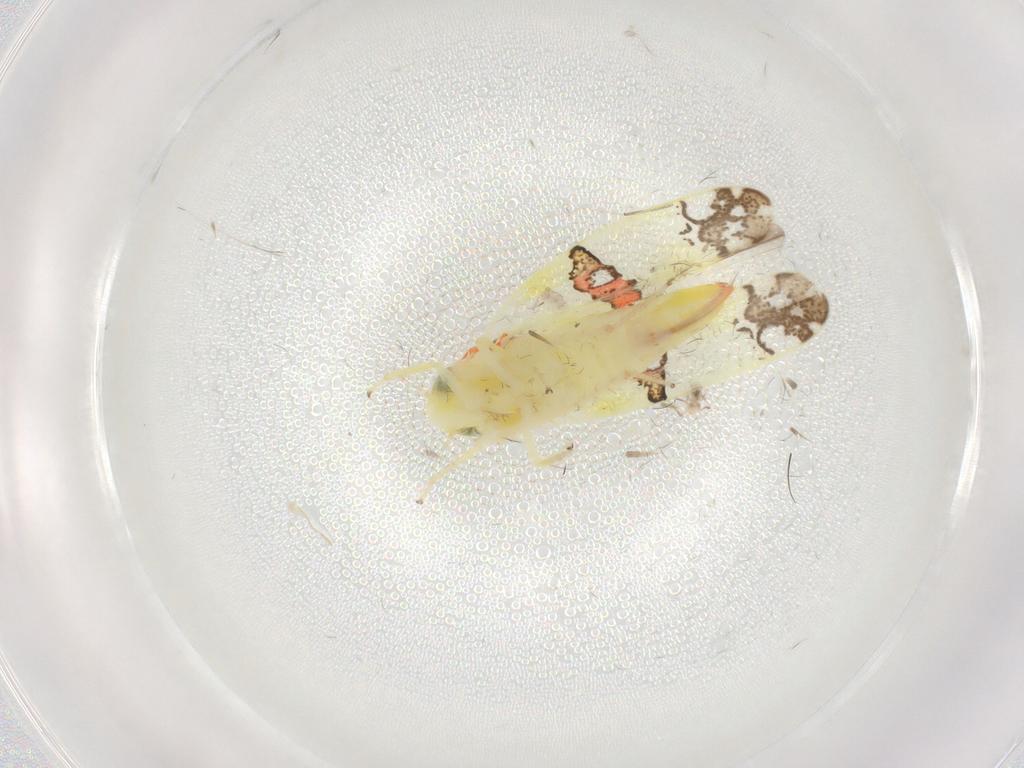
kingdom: Animalia
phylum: Arthropoda
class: Insecta
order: Hemiptera
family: Cicadellidae
